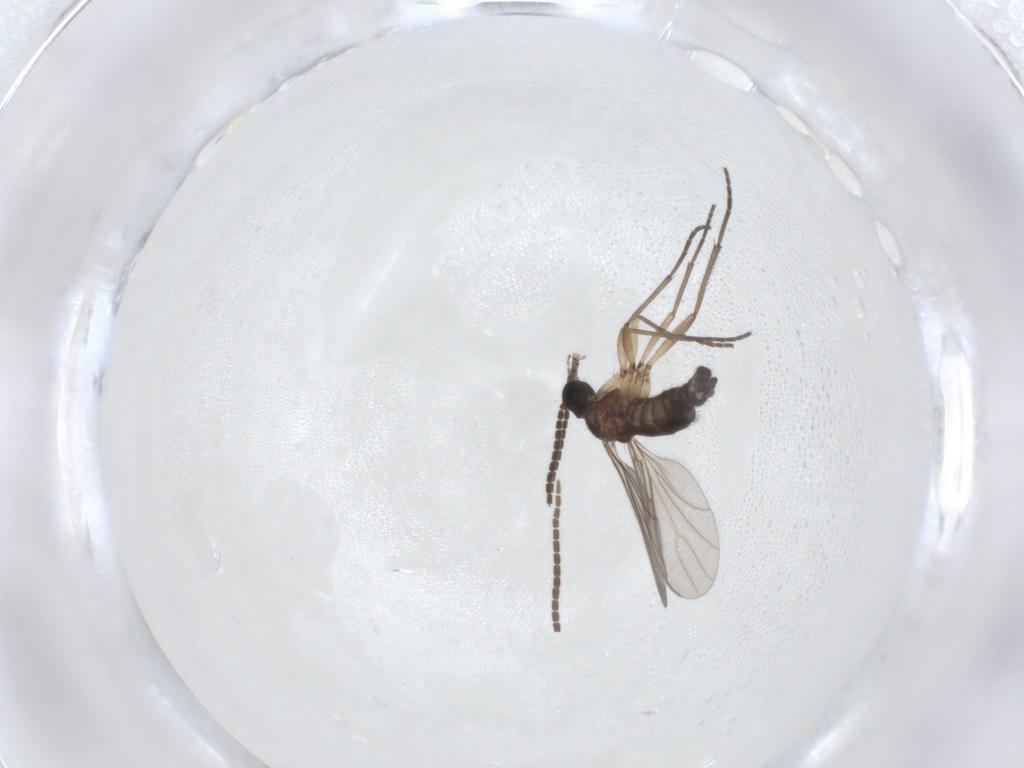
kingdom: Animalia
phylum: Arthropoda
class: Insecta
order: Diptera
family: Sciaridae
